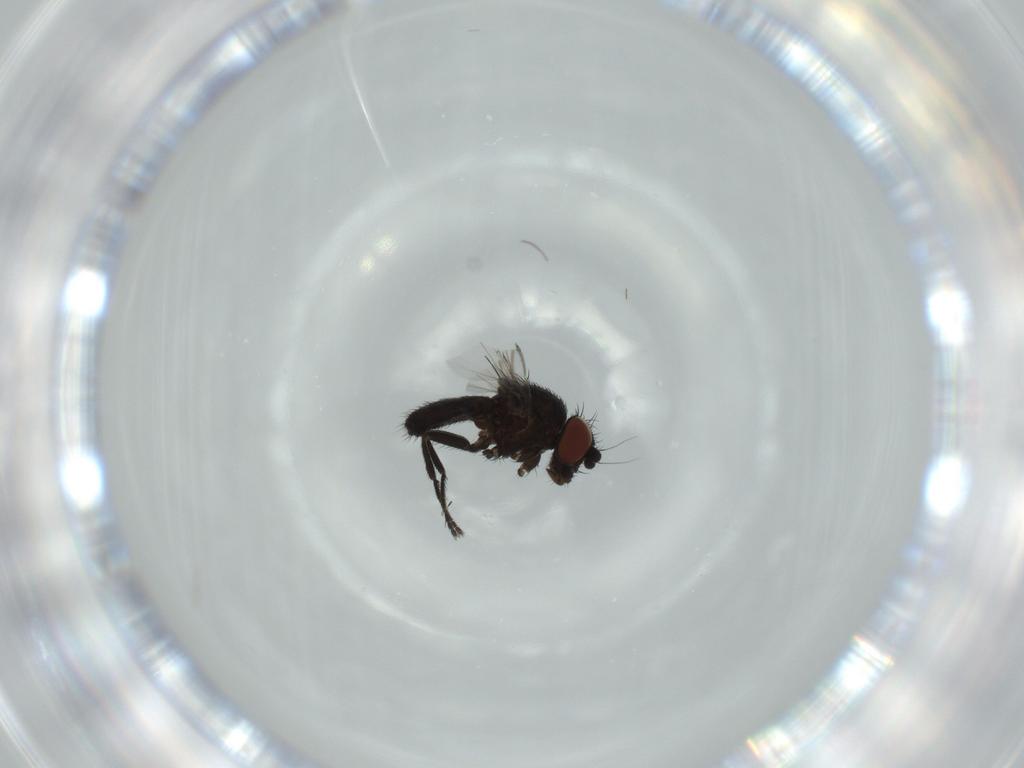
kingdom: Animalia
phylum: Arthropoda
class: Insecta
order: Diptera
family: Milichiidae
